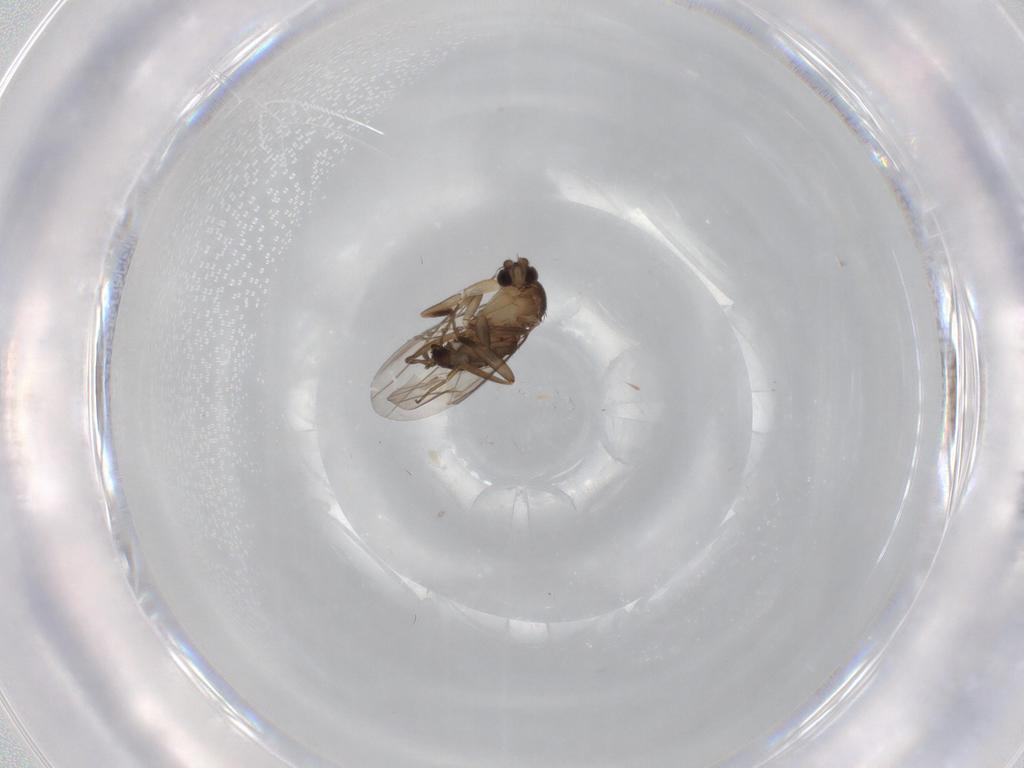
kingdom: Animalia
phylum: Arthropoda
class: Insecta
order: Diptera
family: Phoridae
